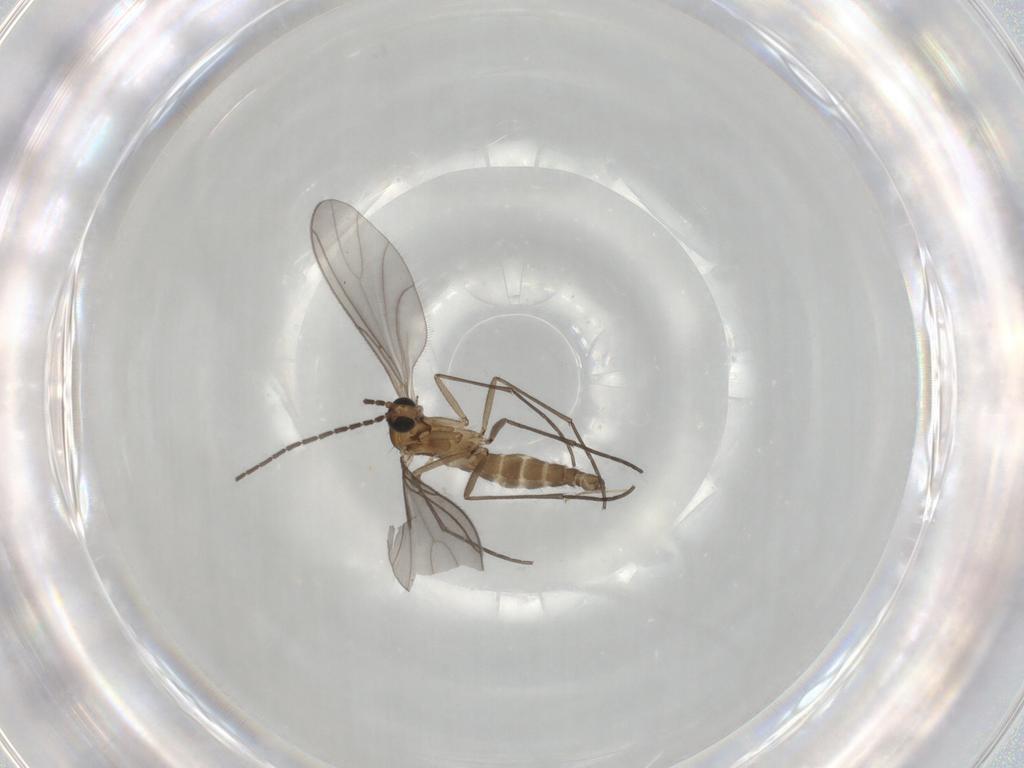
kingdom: Animalia
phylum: Arthropoda
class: Insecta
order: Diptera
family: Sciaridae
